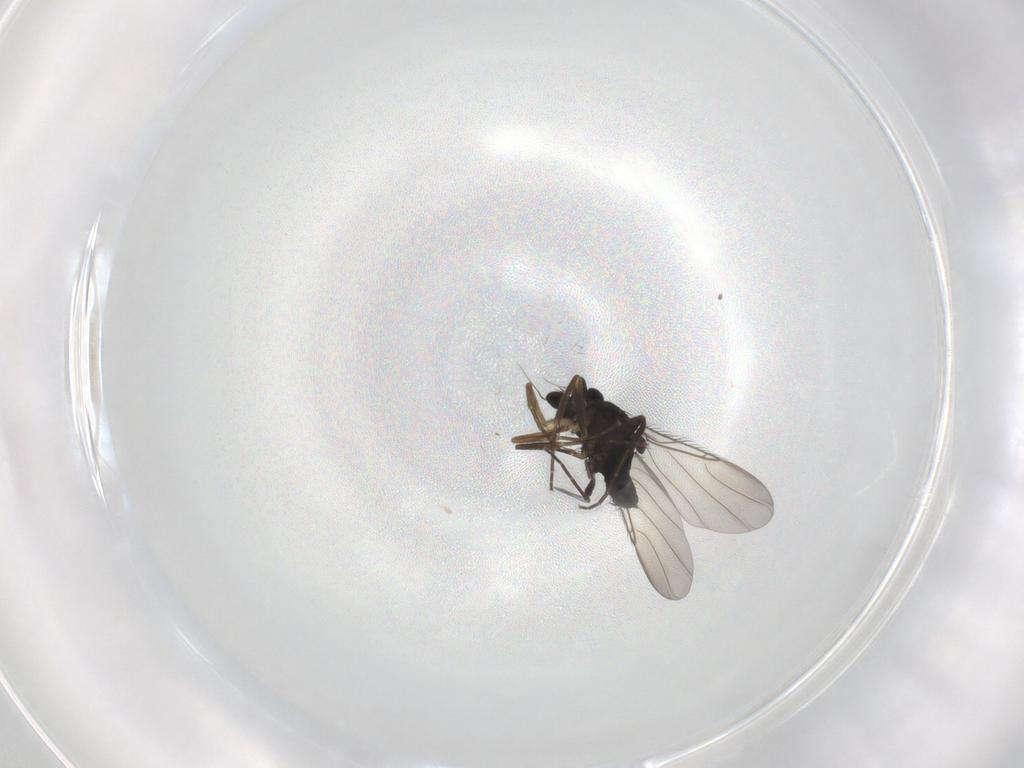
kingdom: Animalia
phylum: Arthropoda
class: Insecta
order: Diptera
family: Phoridae
